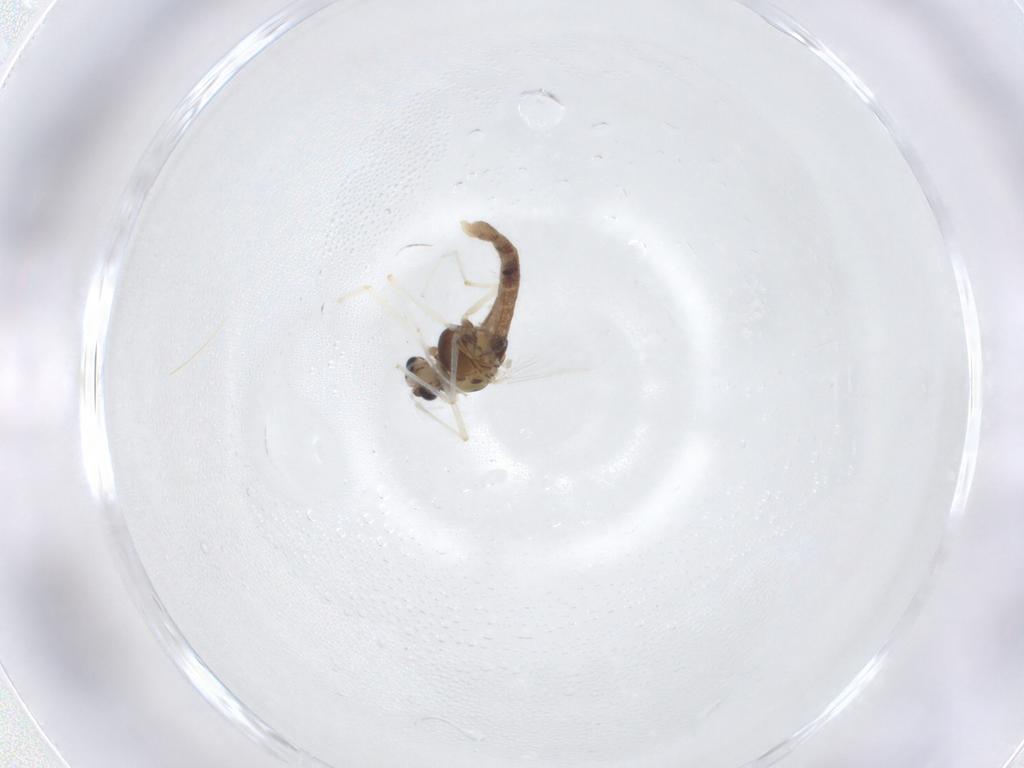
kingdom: Animalia
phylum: Arthropoda
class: Insecta
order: Diptera
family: Chironomidae
